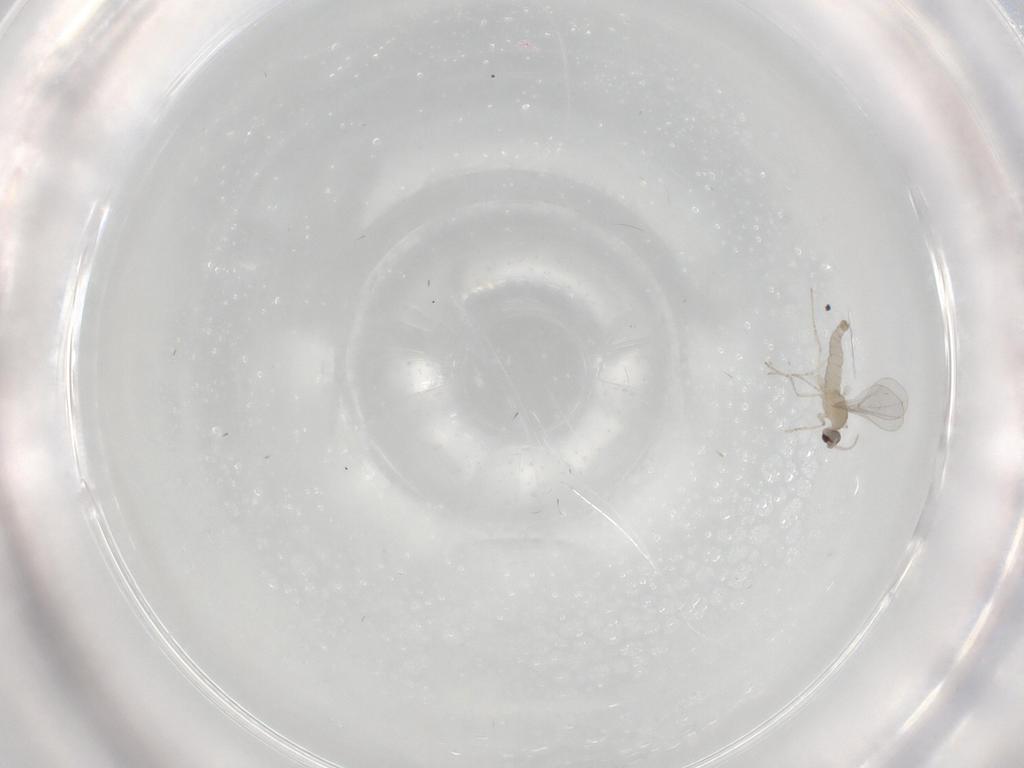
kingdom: Animalia
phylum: Arthropoda
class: Insecta
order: Diptera
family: Cecidomyiidae
